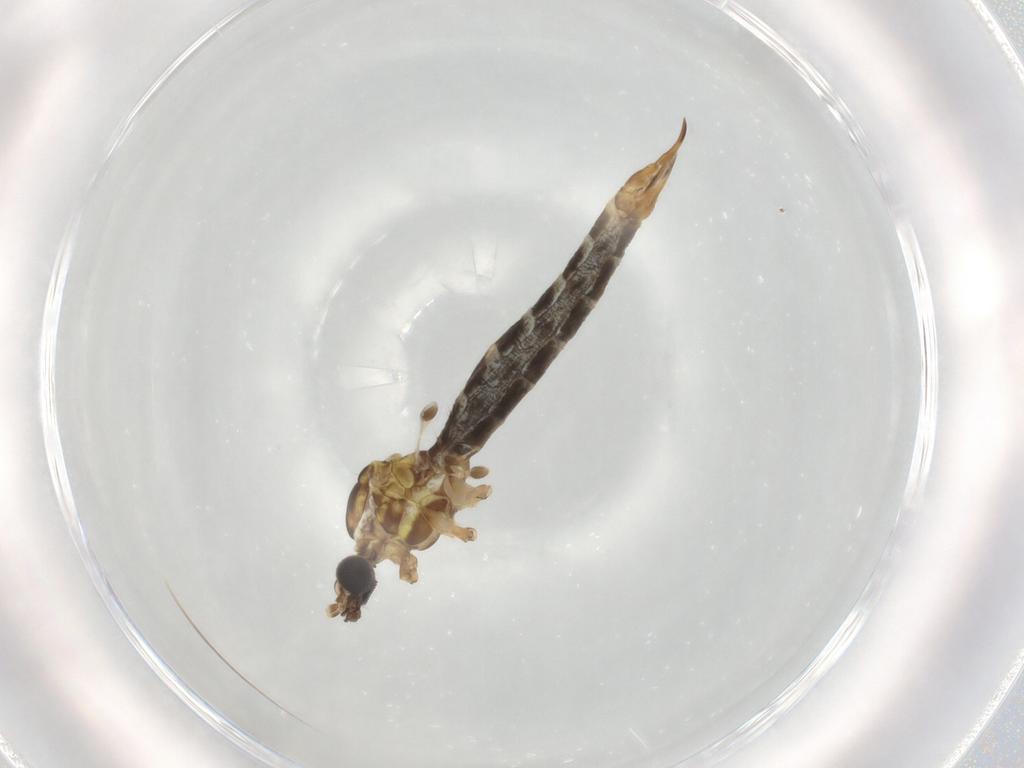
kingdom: Animalia
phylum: Arthropoda
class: Insecta
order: Diptera
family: Limoniidae
